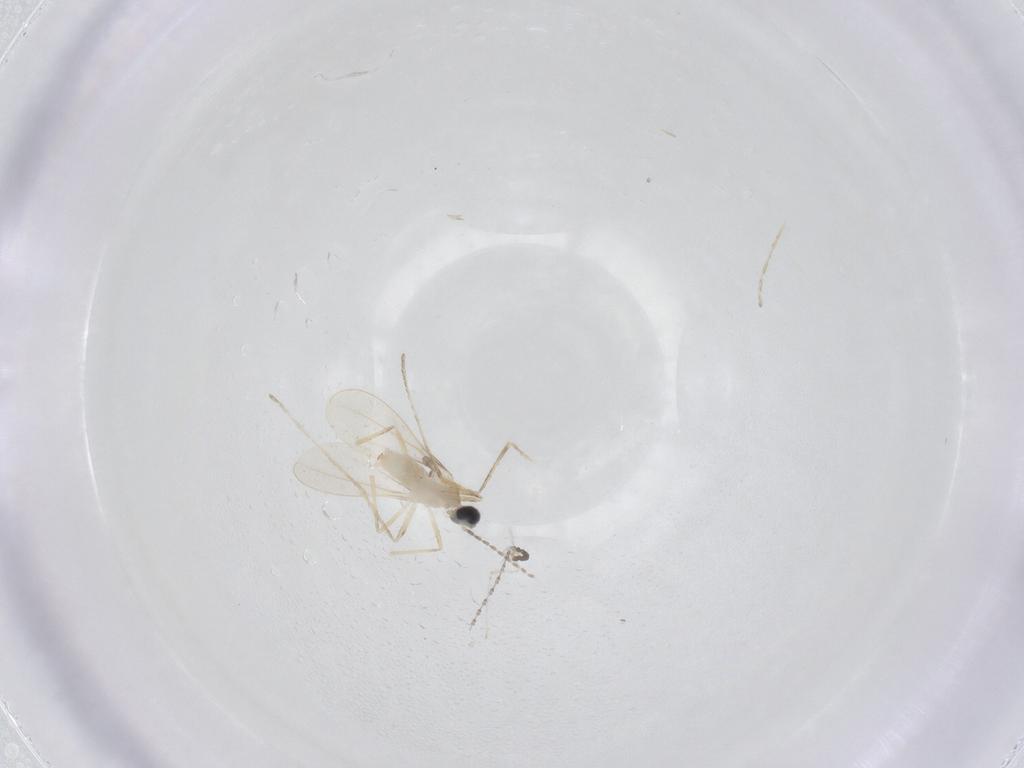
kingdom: Animalia
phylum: Arthropoda
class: Insecta
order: Diptera
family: Cecidomyiidae
